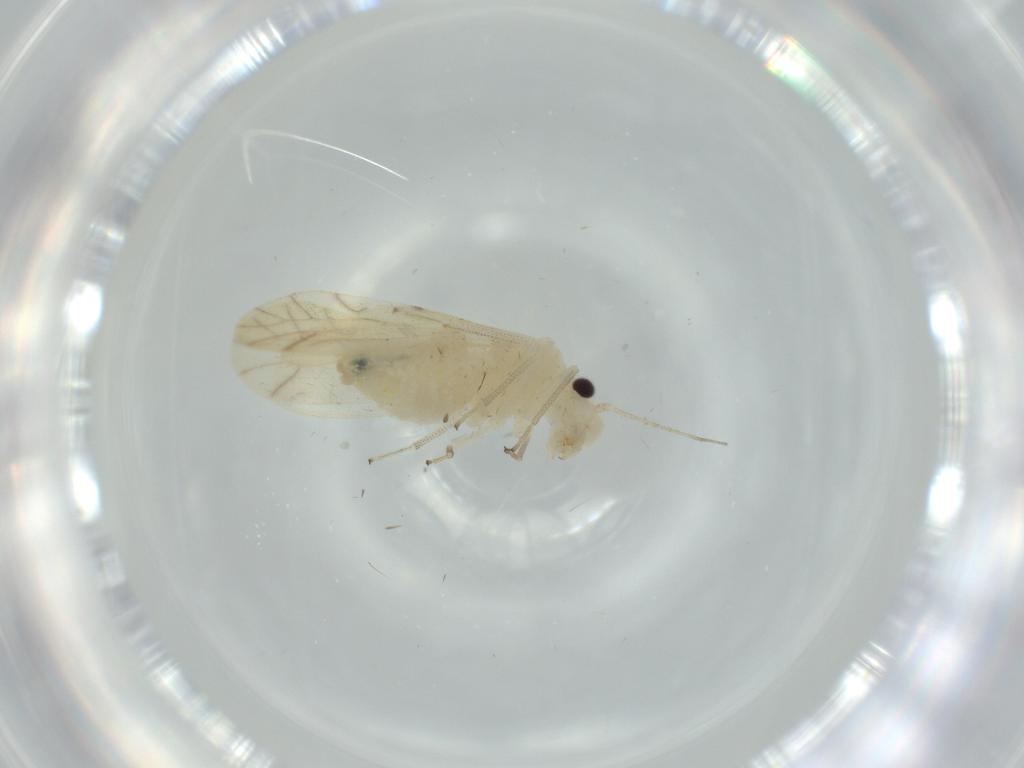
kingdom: Animalia
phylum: Arthropoda
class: Insecta
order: Psocodea
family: Caeciliusidae
